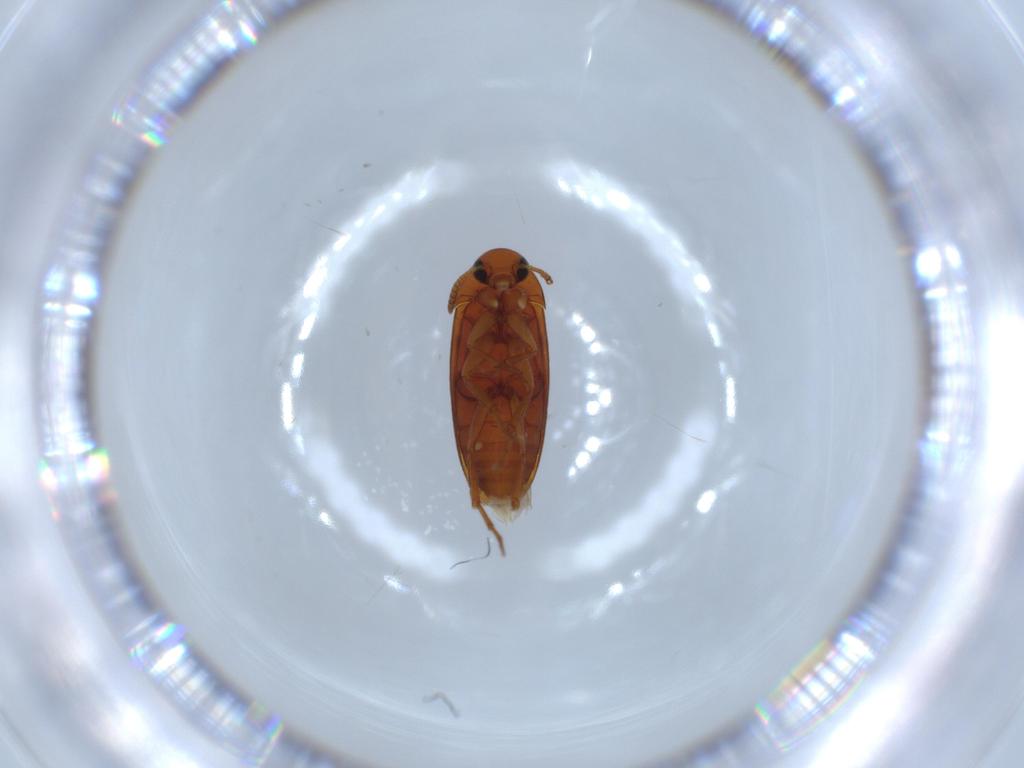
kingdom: Animalia
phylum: Arthropoda
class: Insecta
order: Coleoptera
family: Scraptiidae
